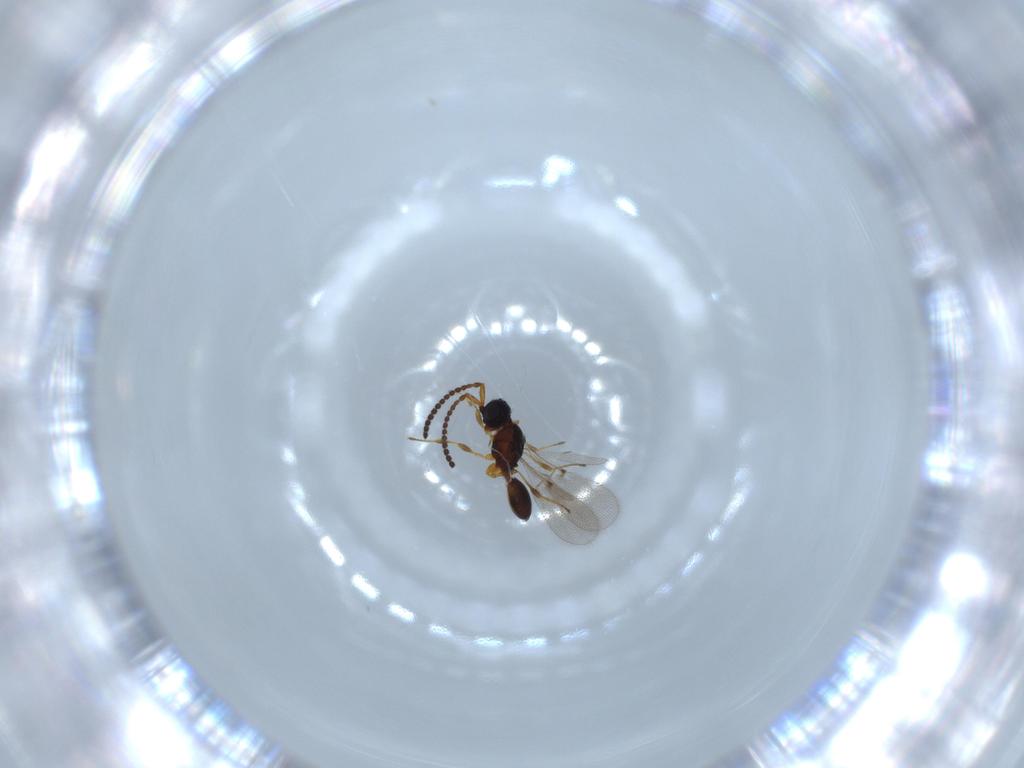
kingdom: Animalia
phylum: Arthropoda
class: Insecta
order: Hymenoptera
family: Diapriidae
